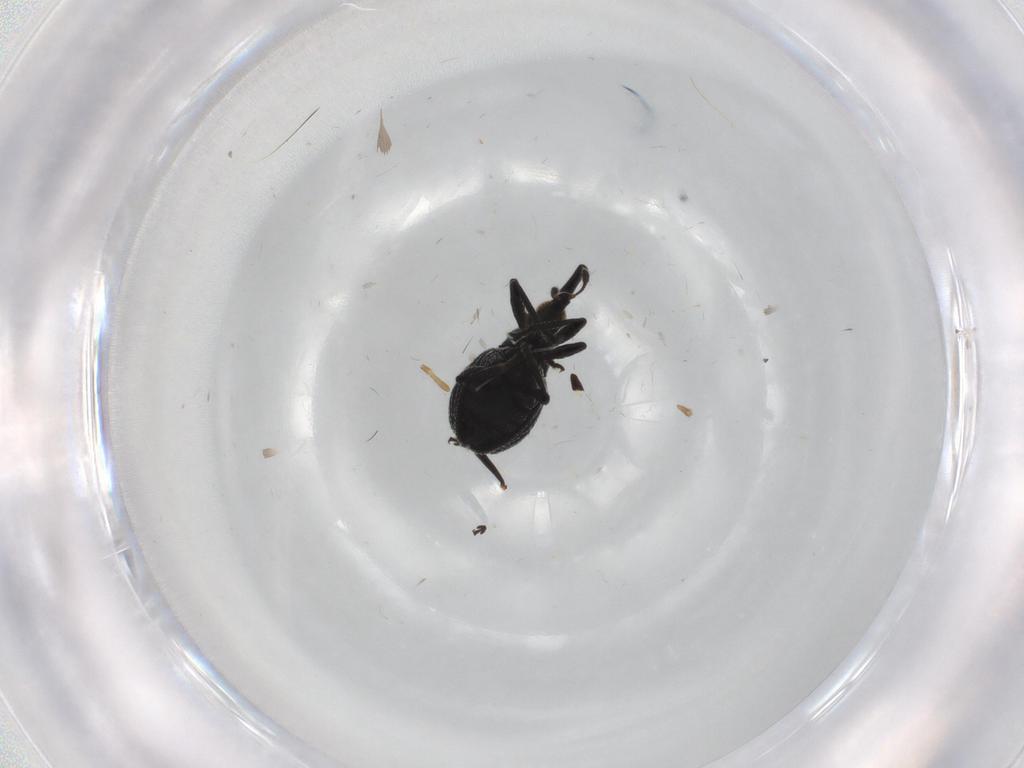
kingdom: Animalia
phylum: Arthropoda
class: Insecta
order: Coleoptera
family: Brentidae
